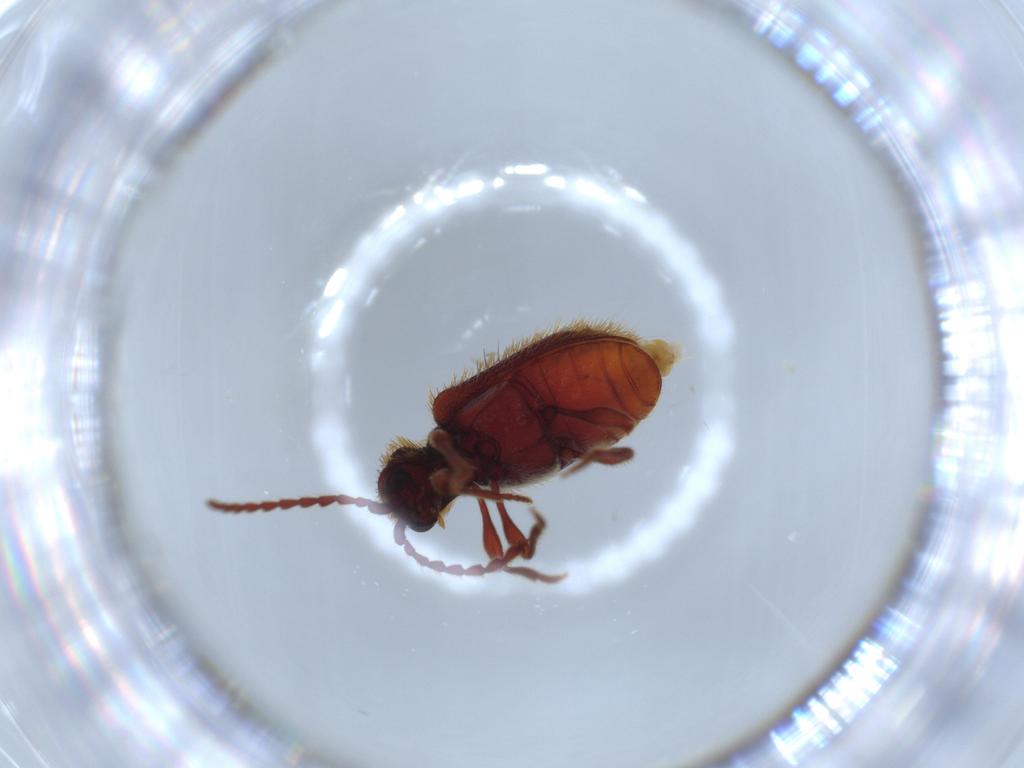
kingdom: Animalia
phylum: Arthropoda
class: Insecta
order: Coleoptera
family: Ptinidae
